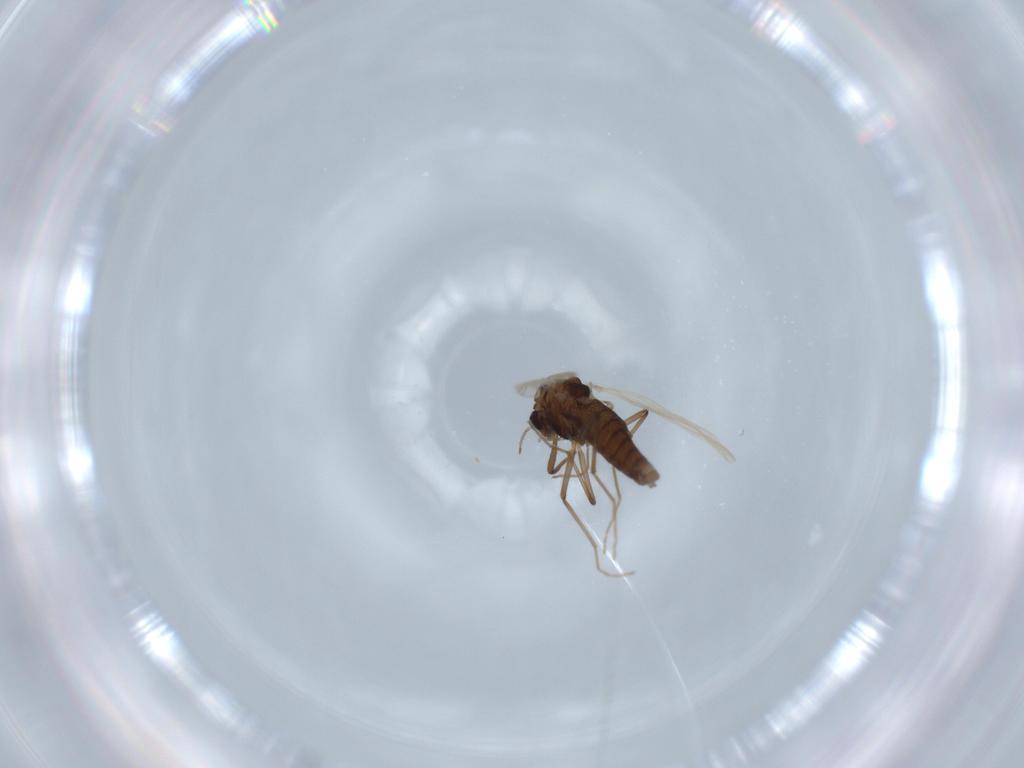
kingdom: Animalia
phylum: Arthropoda
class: Insecta
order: Diptera
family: Chironomidae
